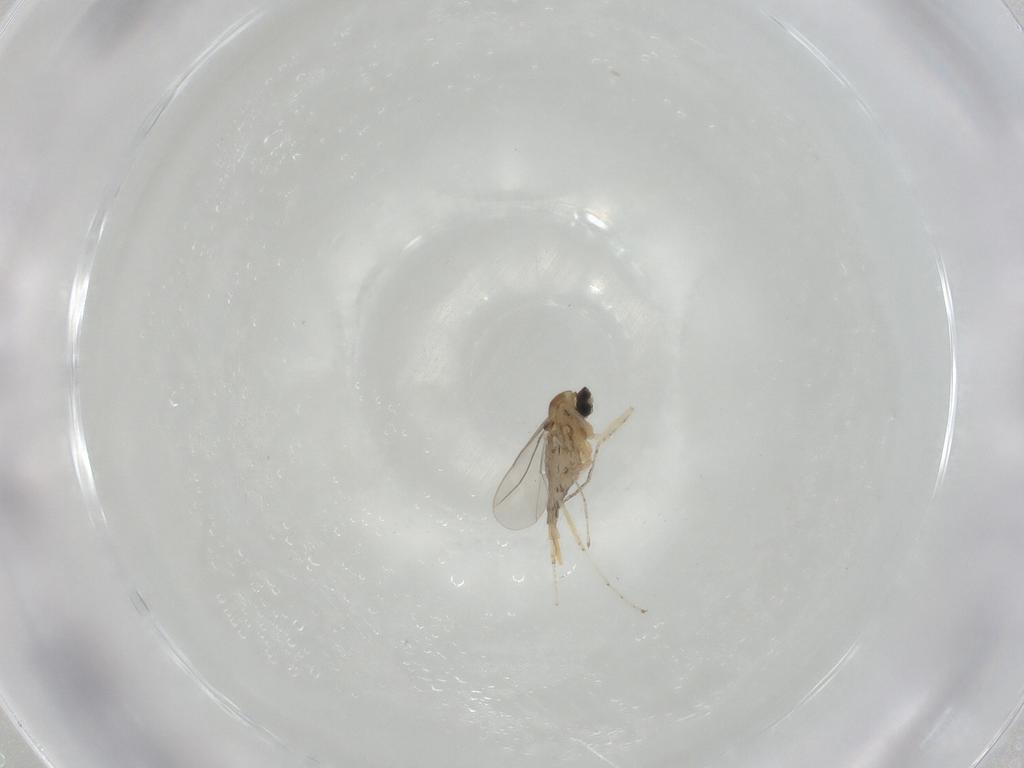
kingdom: Animalia
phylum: Arthropoda
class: Insecta
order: Diptera
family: Cecidomyiidae
